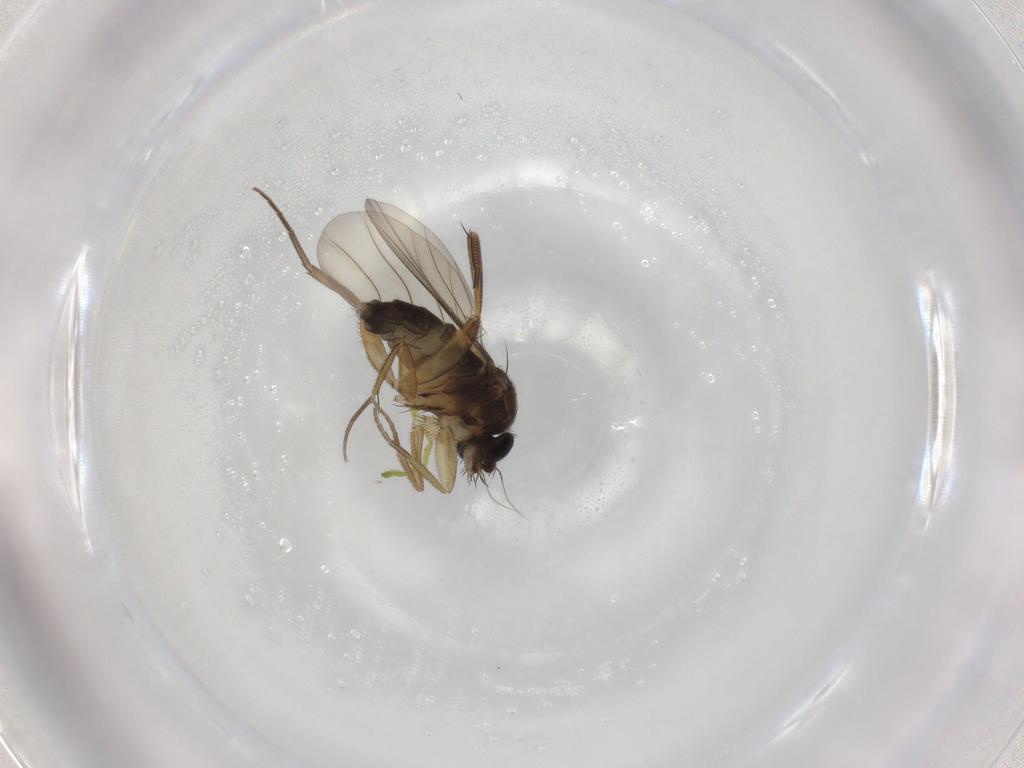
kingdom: Animalia
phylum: Arthropoda
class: Insecta
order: Diptera
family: Phoridae
